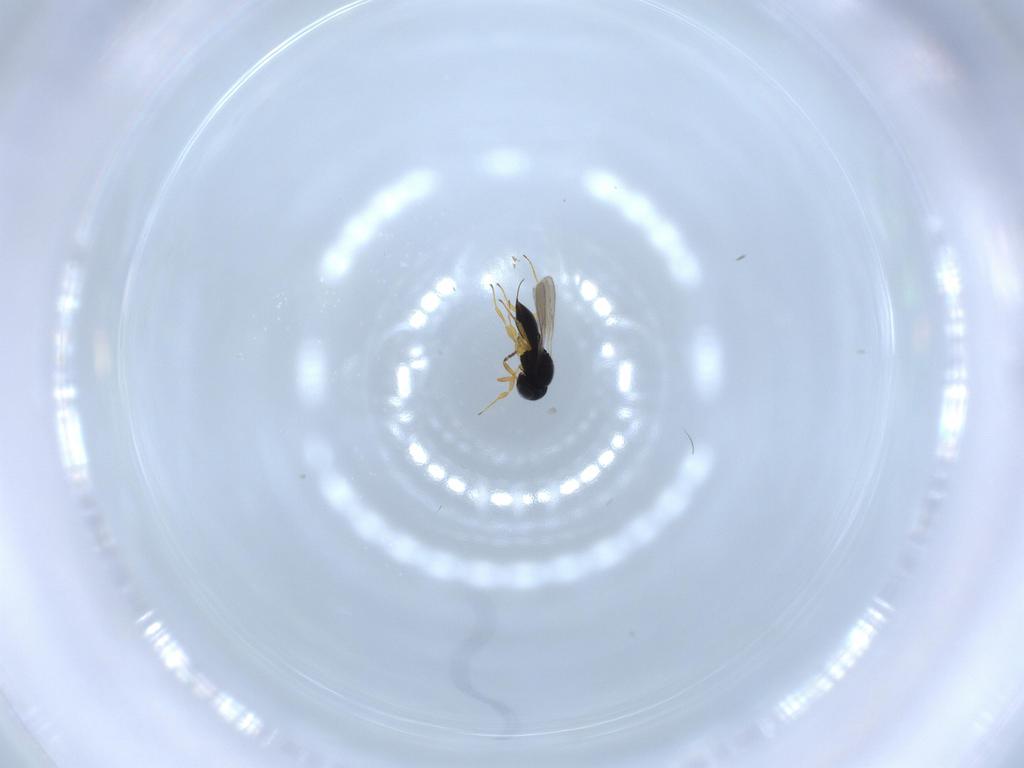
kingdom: Animalia
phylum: Arthropoda
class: Insecta
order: Hymenoptera
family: Scelionidae
